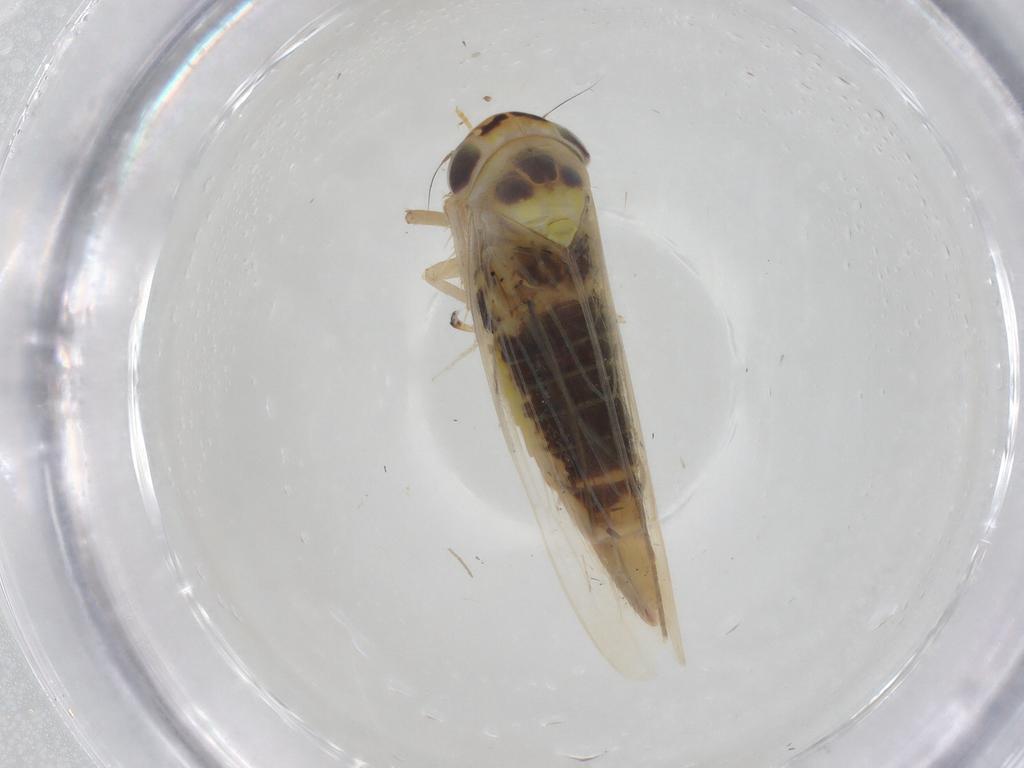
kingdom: Animalia
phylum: Arthropoda
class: Insecta
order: Hemiptera
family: Cicadellidae
